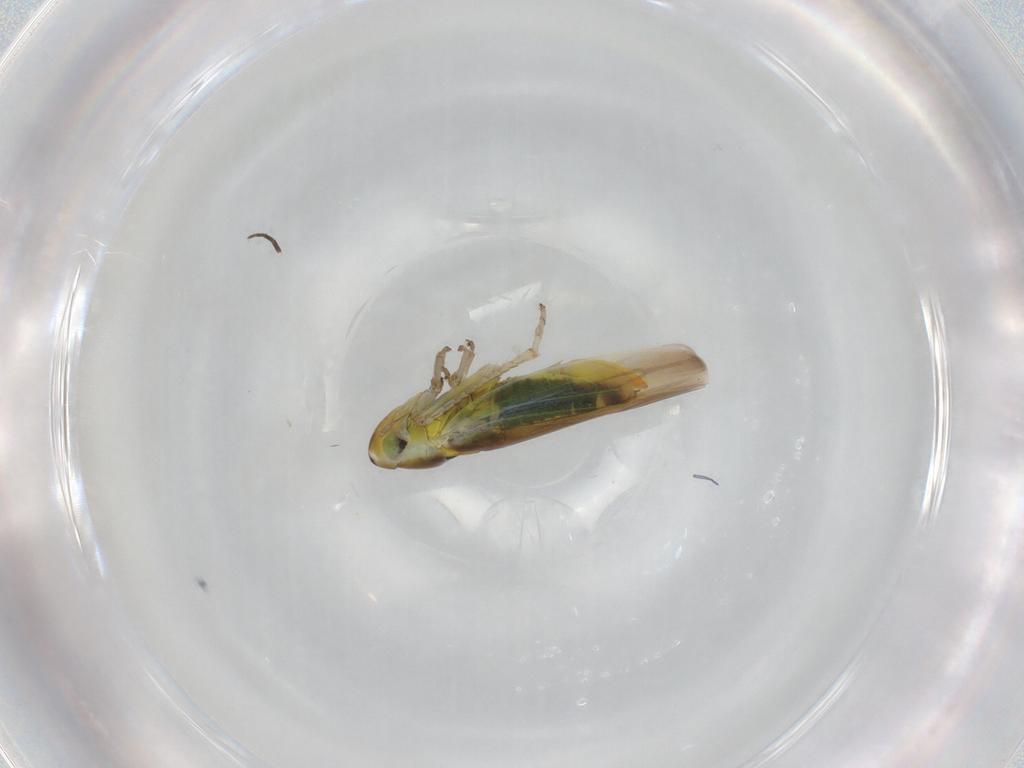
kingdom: Animalia
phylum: Arthropoda
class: Insecta
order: Hemiptera
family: Cicadellidae
